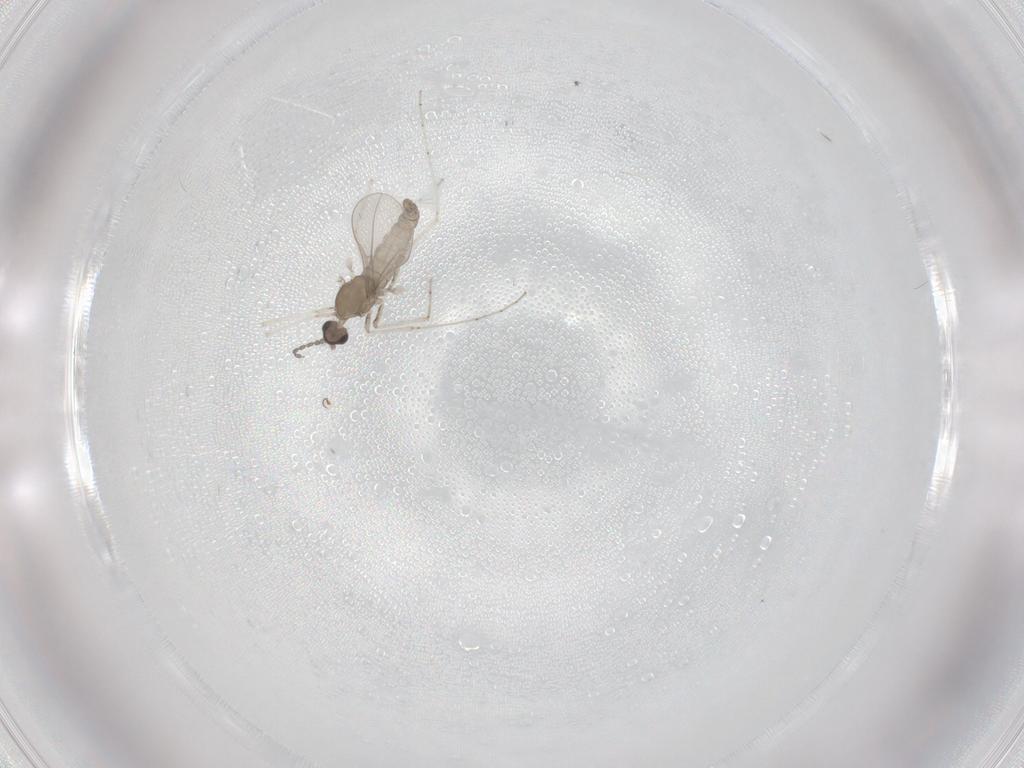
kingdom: Animalia
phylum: Arthropoda
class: Insecta
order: Diptera
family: Cecidomyiidae
